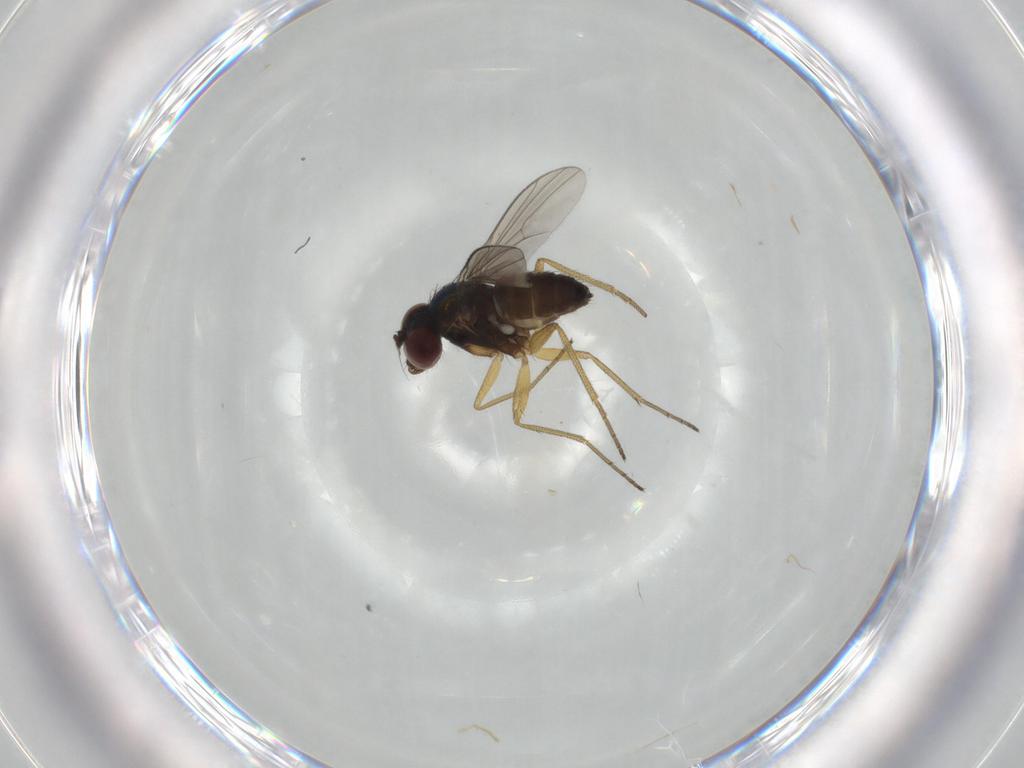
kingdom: Animalia
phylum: Arthropoda
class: Insecta
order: Diptera
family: Dolichopodidae
